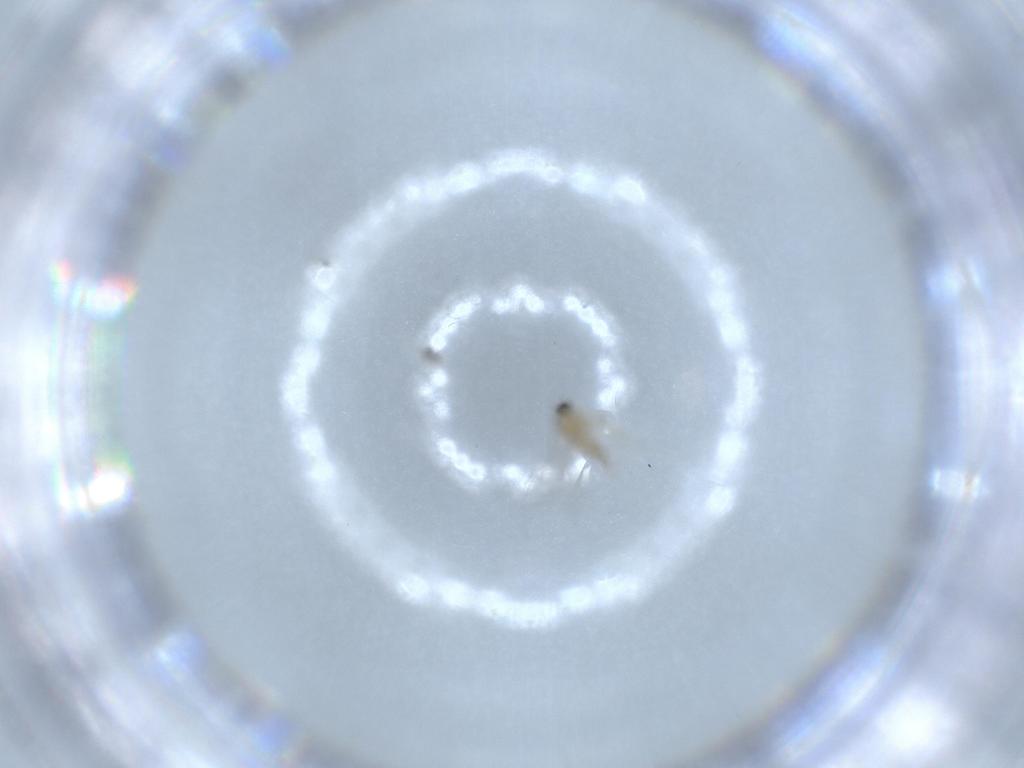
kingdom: Animalia
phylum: Arthropoda
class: Insecta
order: Diptera
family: Cecidomyiidae
